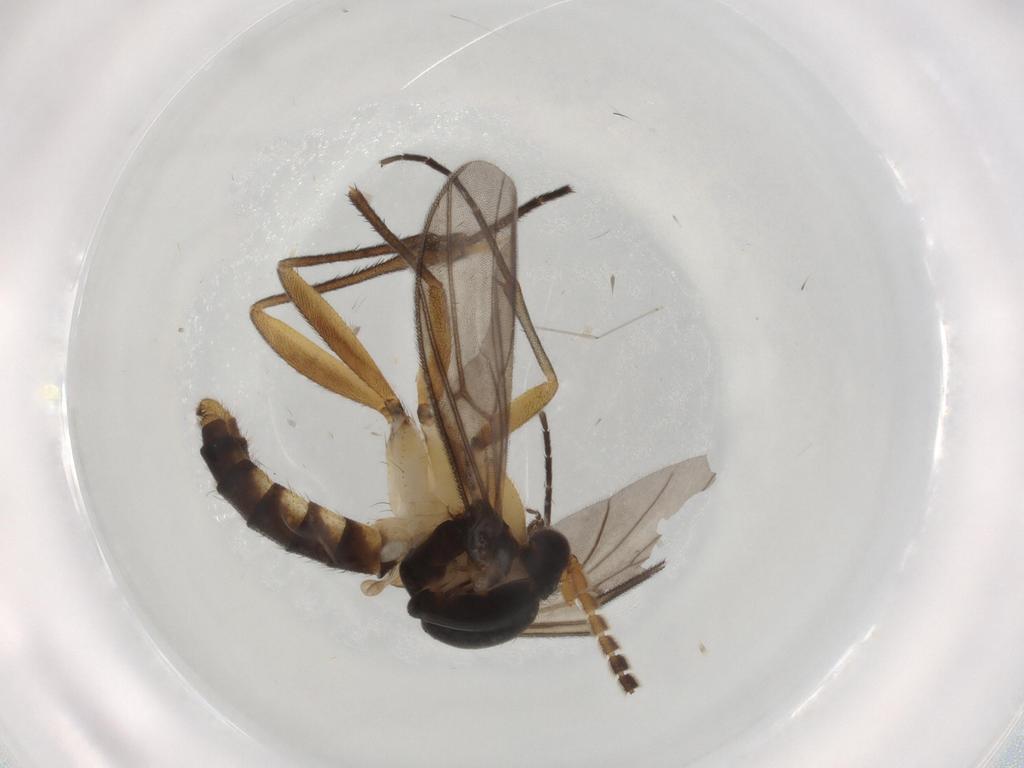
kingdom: Animalia
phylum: Arthropoda
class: Insecta
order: Diptera
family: Mycetophilidae
